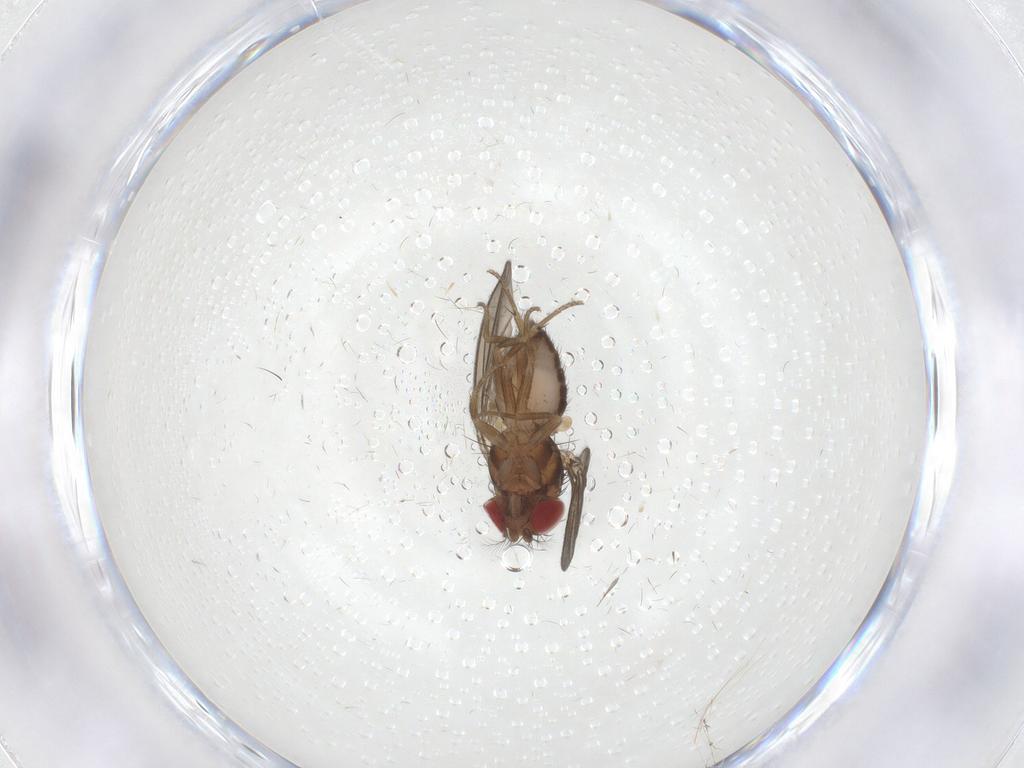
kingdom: Animalia
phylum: Arthropoda
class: Insecta
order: Diptera
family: Drosophilidae
